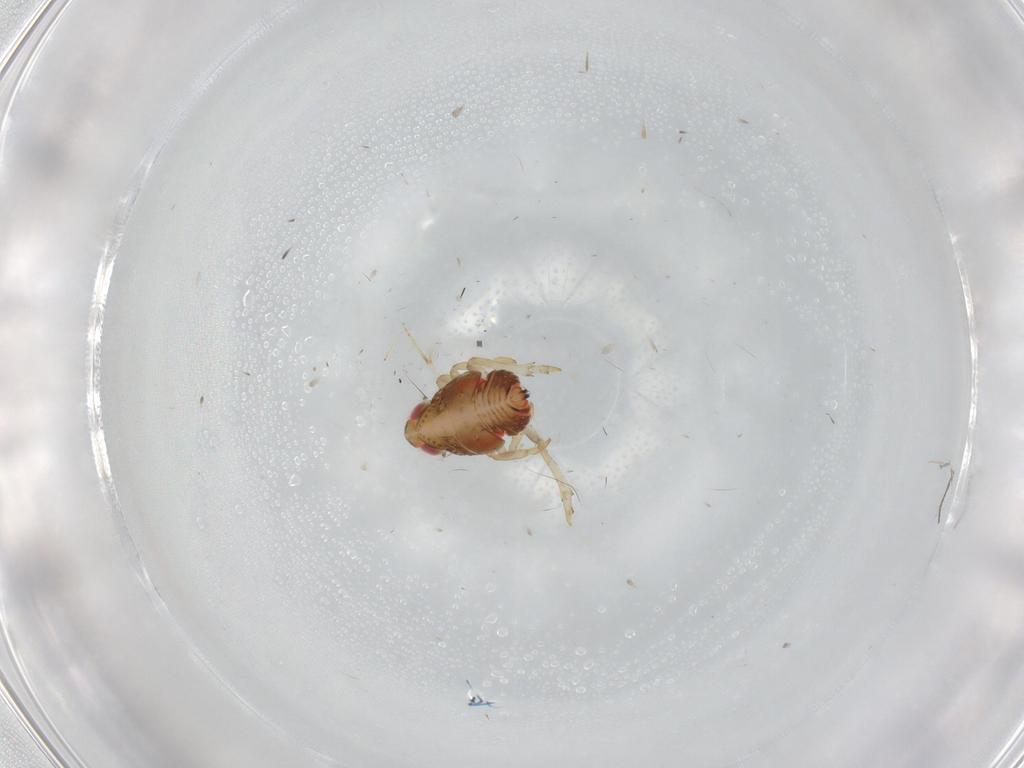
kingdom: Animalia
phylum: Arthropoda
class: Insecta
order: Hemiptera
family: Issidae
